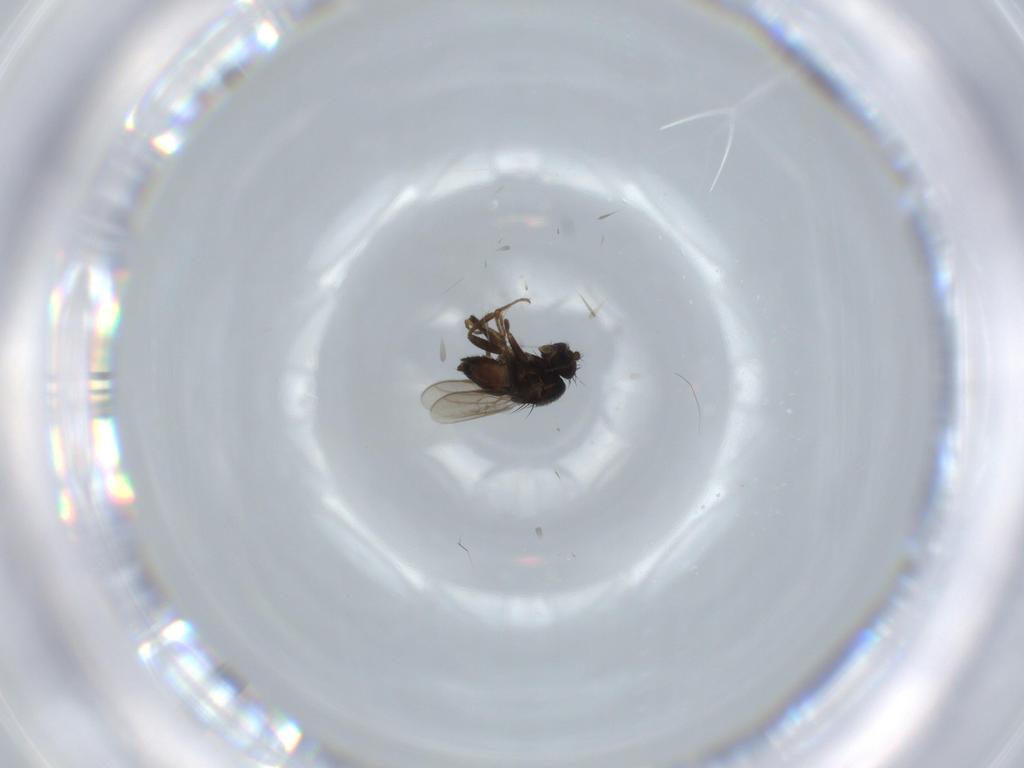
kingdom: Animalia
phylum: Arthropoda
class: Insecta
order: Diptera
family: Sphaeroceridae
